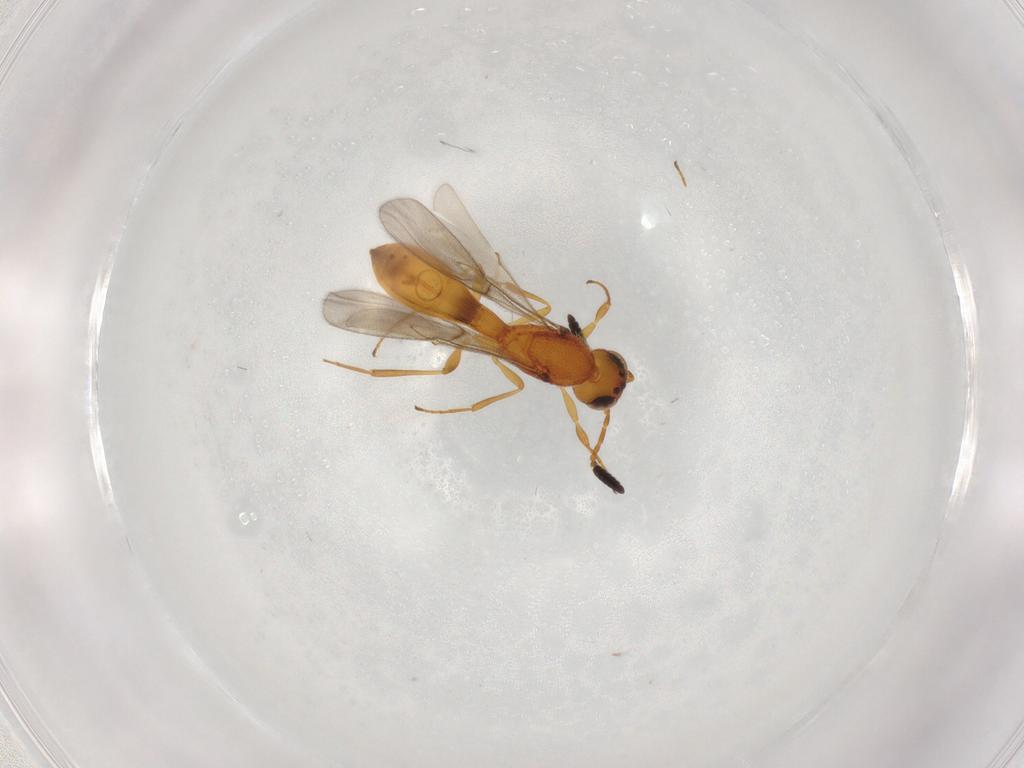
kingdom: Animalia
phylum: Arthropoda
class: Insecta
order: Hymenoptera
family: Scelionidae
